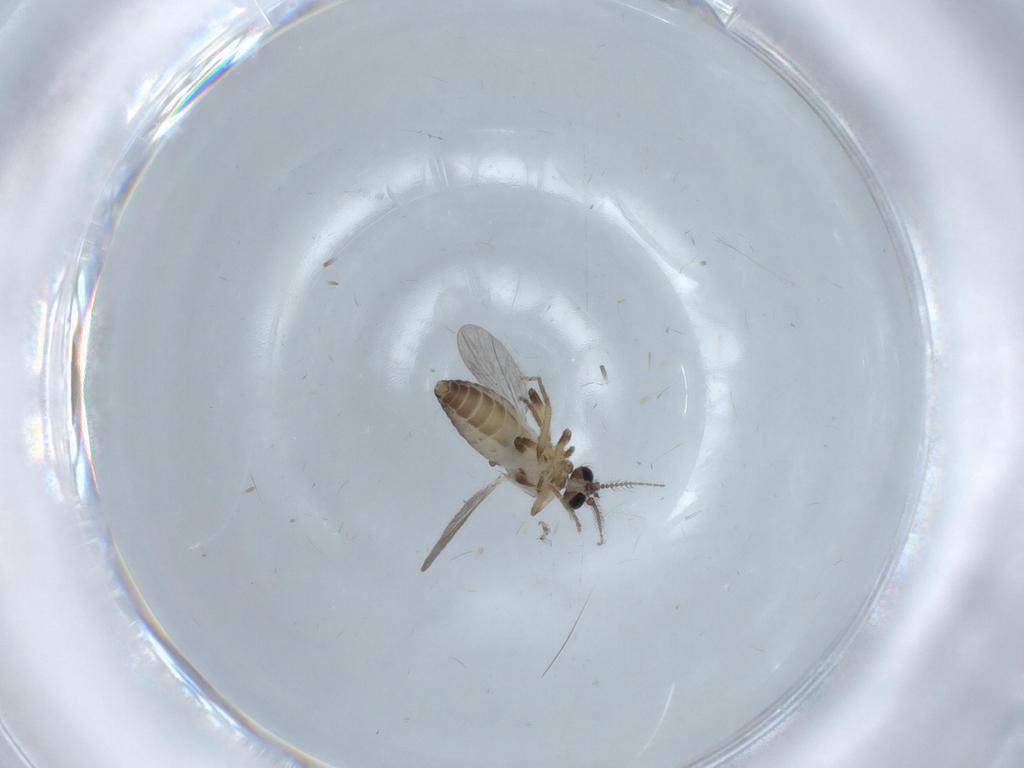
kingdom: Animalia
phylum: Arthropoda
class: Insecta
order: Diptera
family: Ceratopogonidae
